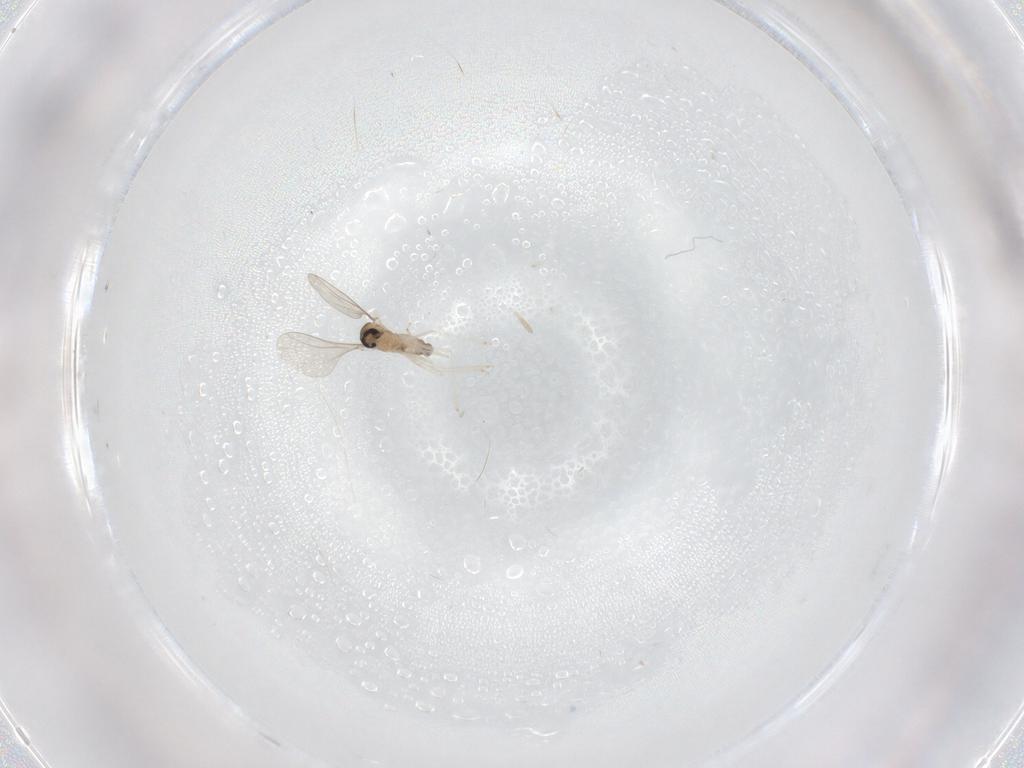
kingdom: Animalia
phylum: Arthropoda
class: Insecta
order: Diptera
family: Cecidomyiidae
